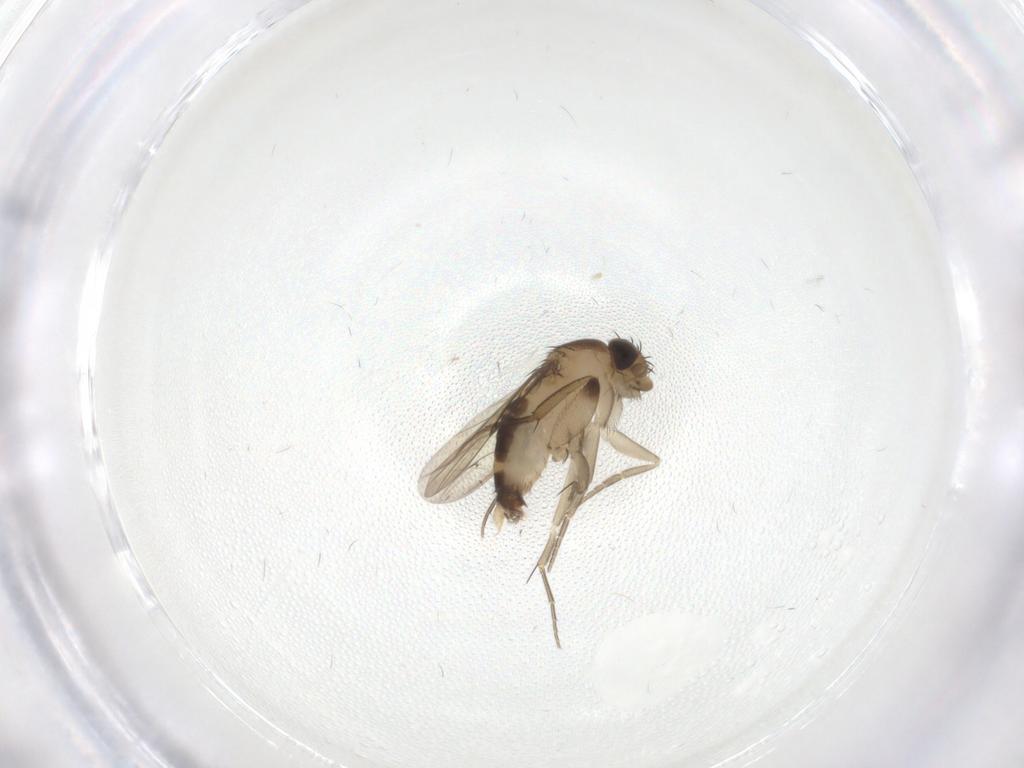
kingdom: Animalia
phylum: Arthropoda
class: Insecta
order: Diptera
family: Phoridae
